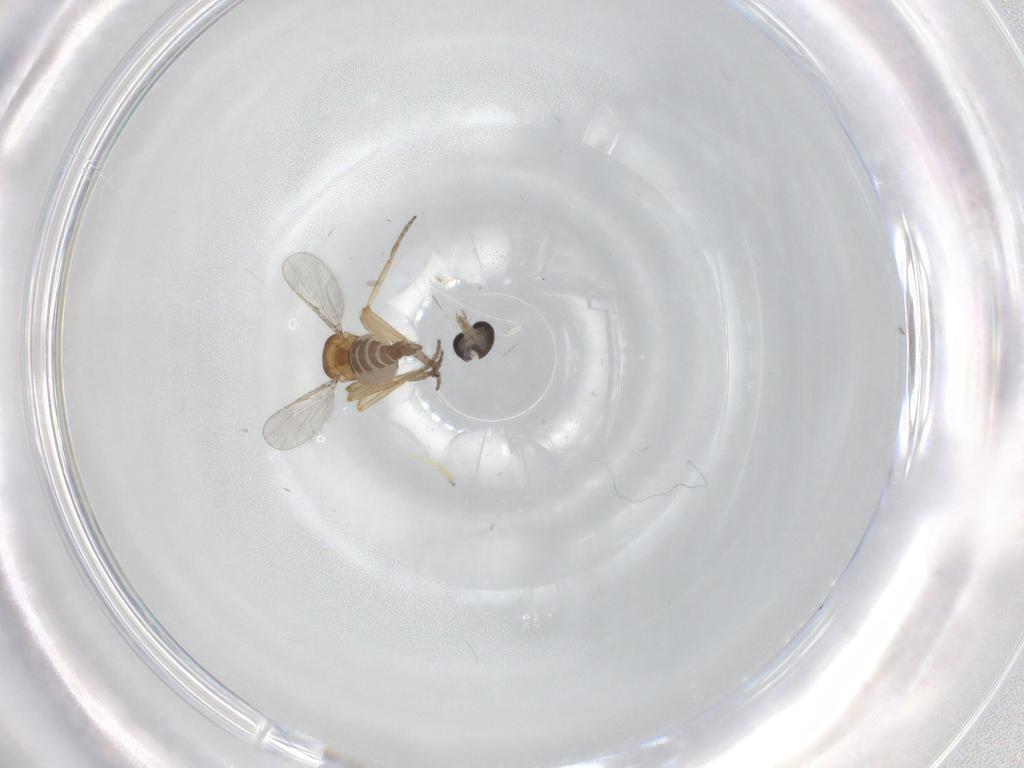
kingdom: Animalia
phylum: Arthropoda
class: Insecta
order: Diptera
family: Ceratopogonidae
